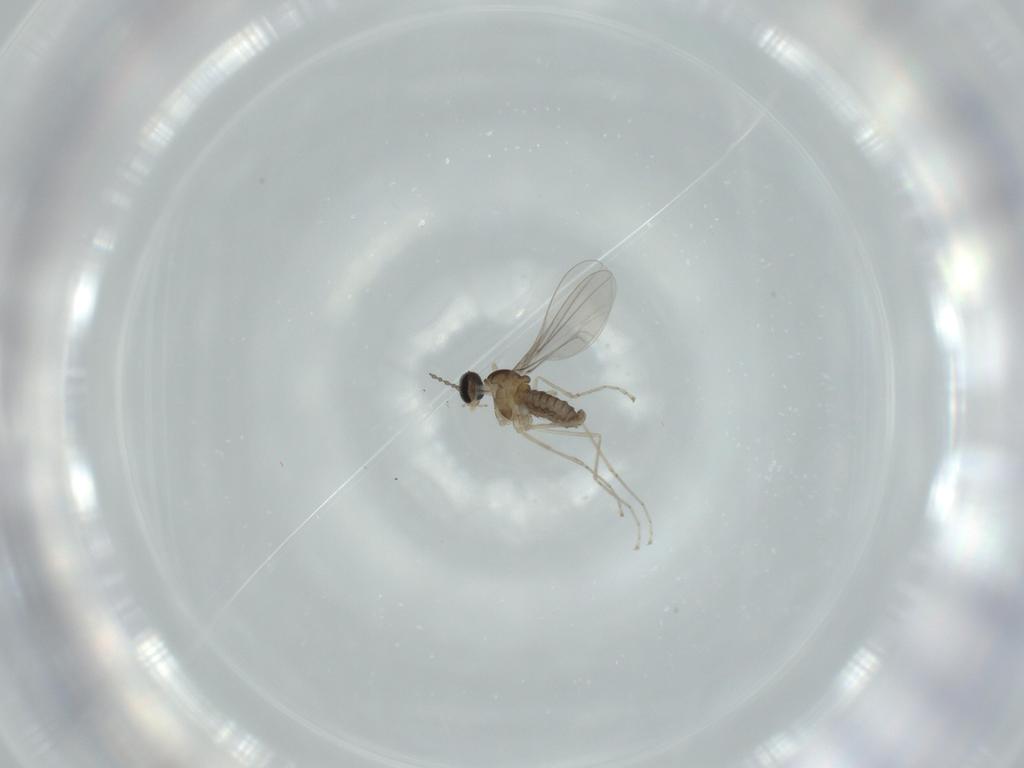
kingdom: Animalia
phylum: Arthropoda
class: Insecta
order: Diptera
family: Cecidomyiidae
